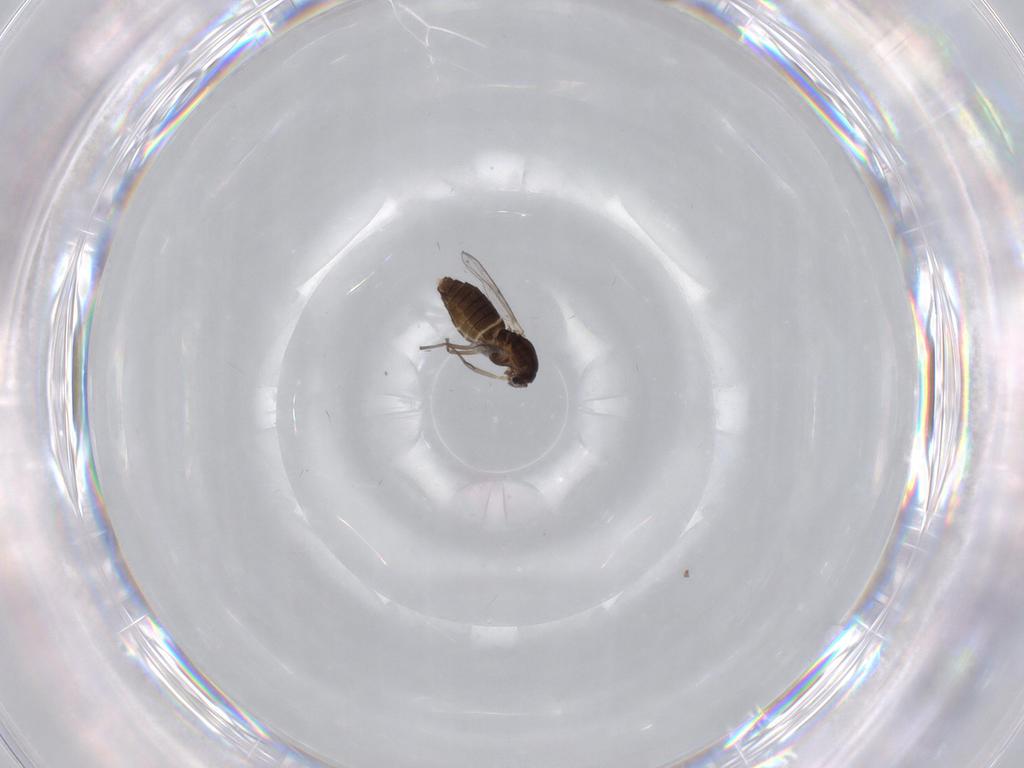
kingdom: Animalia
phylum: Arthropoda
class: Insecta
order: Diptera
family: Chironomidae
